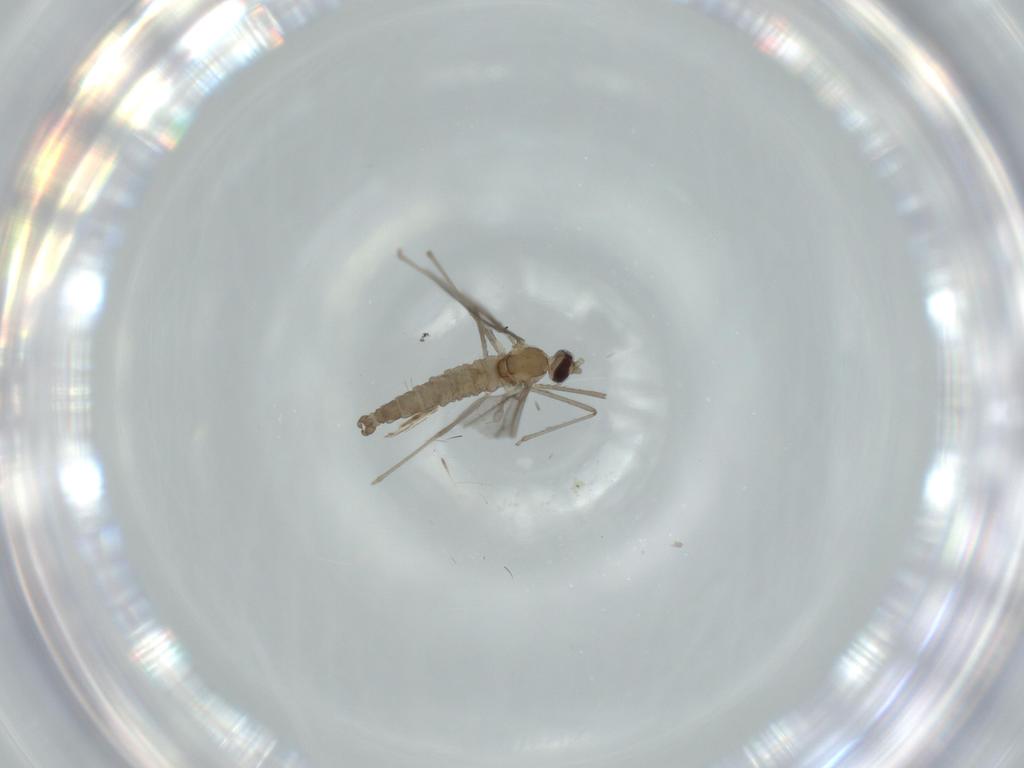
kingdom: Animalia
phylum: Arthropoda
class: Insecta
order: Diptera
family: Cecidomyiidae
